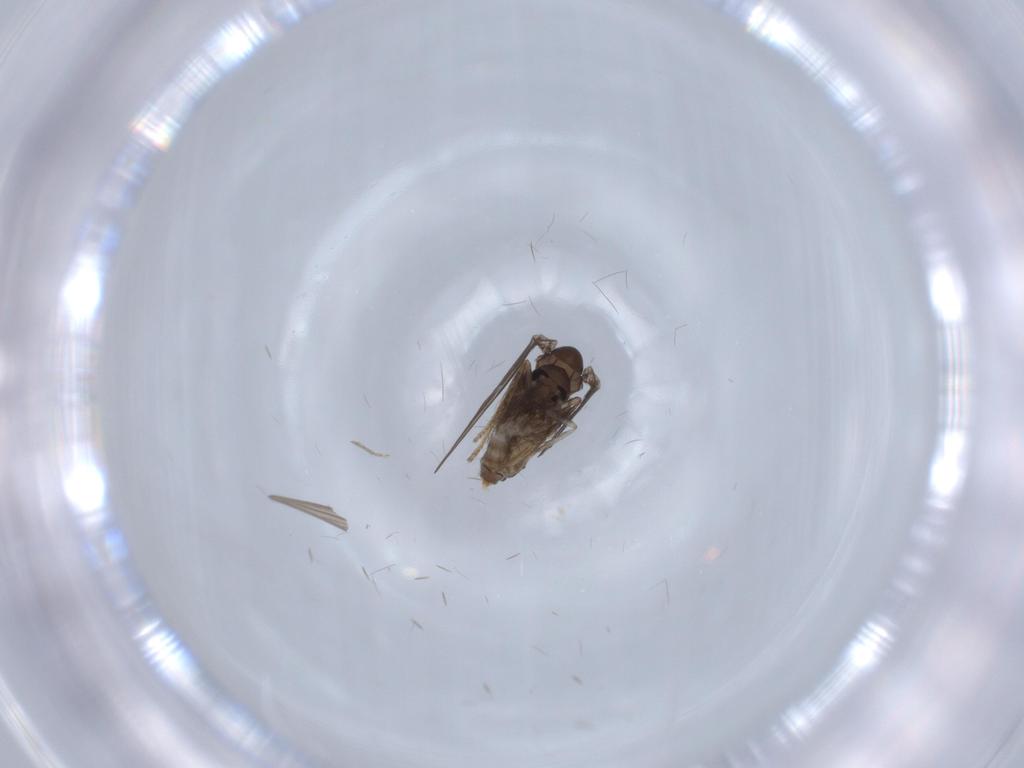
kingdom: Animalia
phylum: Arthropoda
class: Insecta
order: Diptera
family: Psychodidae
